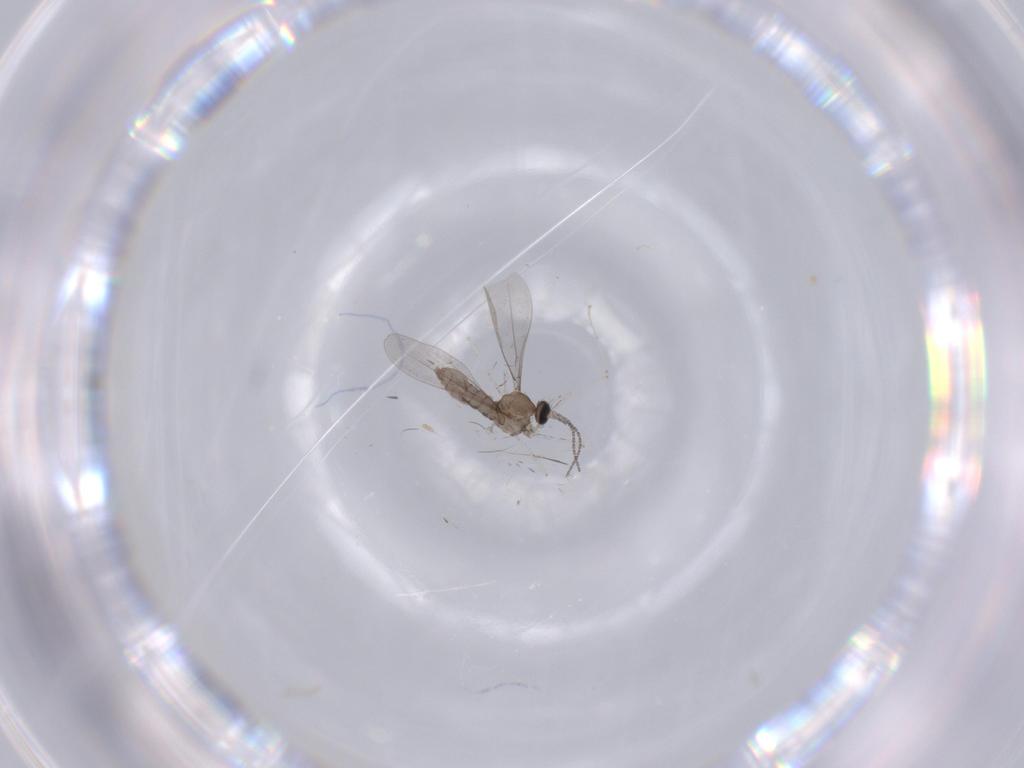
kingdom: Animalia
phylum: Arthropoda
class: Insecta
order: Diptera
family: Cecidomyiidae
